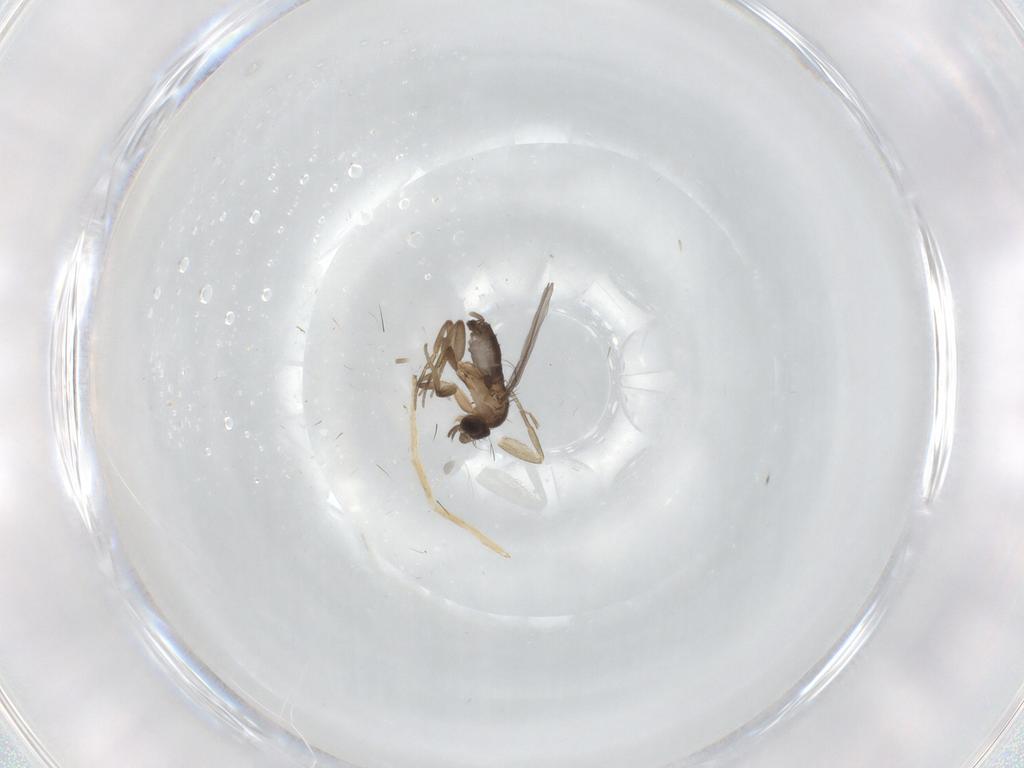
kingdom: Animalia
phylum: Arthropoda
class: Insecta
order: Diptera
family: Phoridae
